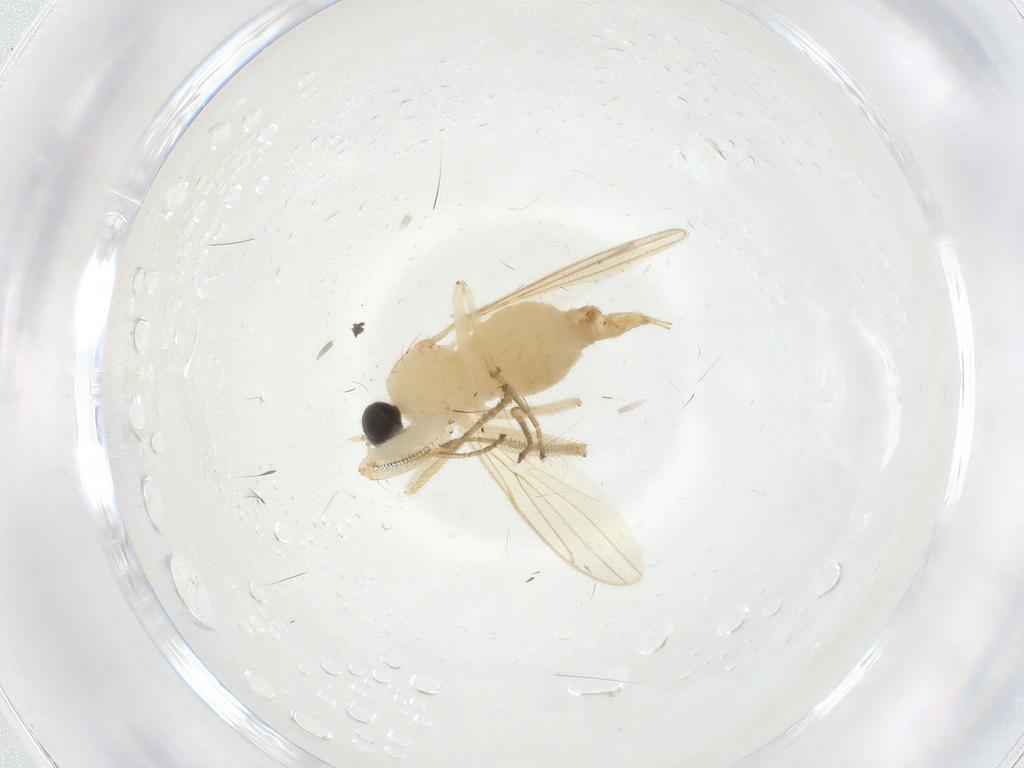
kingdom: Animalia
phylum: Arthropoda
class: Insecta
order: Diptera
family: Hybotidae
